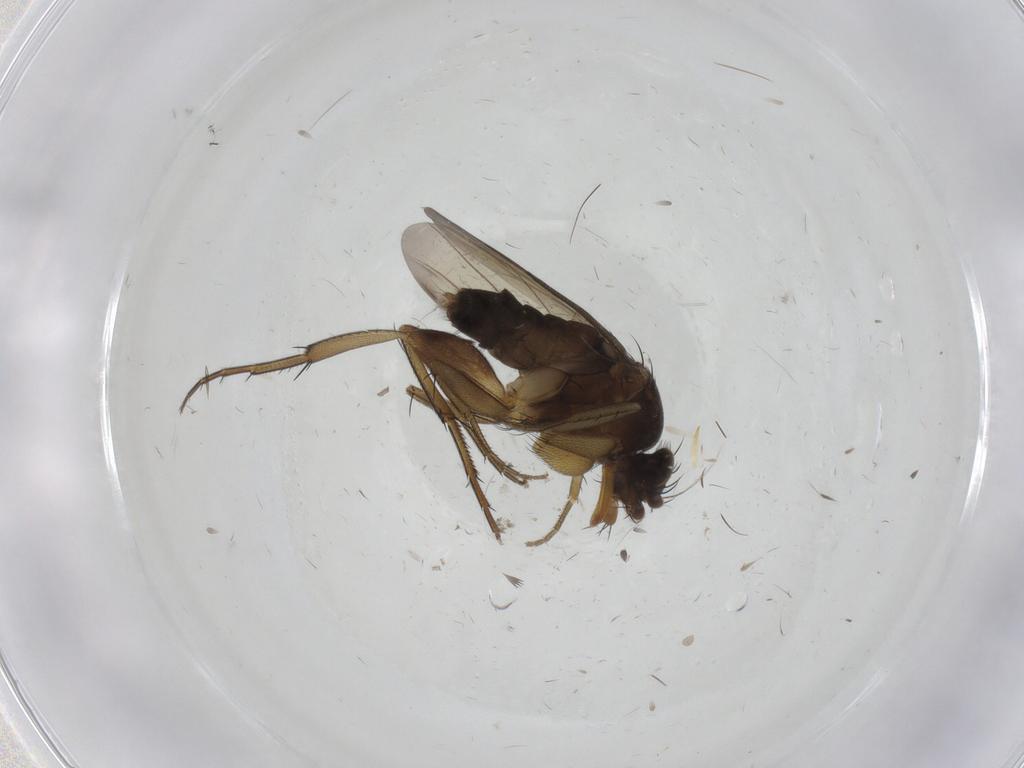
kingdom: Animalia
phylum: Arthropoda
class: Insecta
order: Diptera
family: Phoridae
